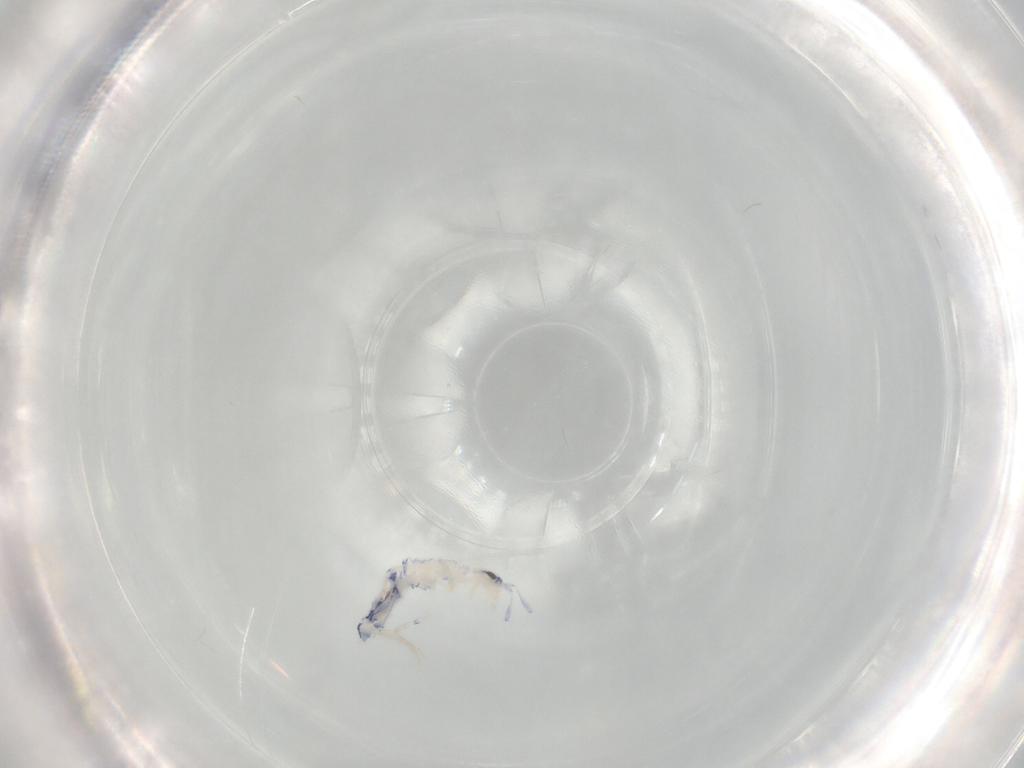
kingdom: Animalia
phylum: Arthropoda
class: Collembola
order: Entomobryomorpha
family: Entomobryidae
